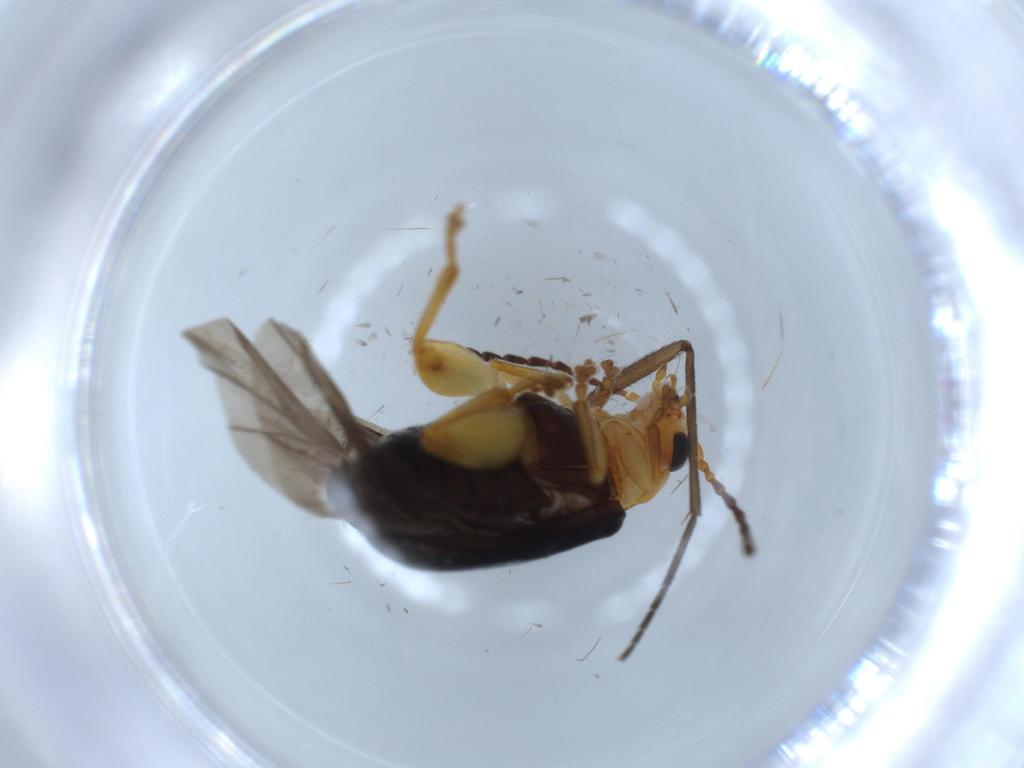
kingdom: Animalia
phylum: Arthropoda
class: Insecta
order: Coleoptera
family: Chrysomelidae
